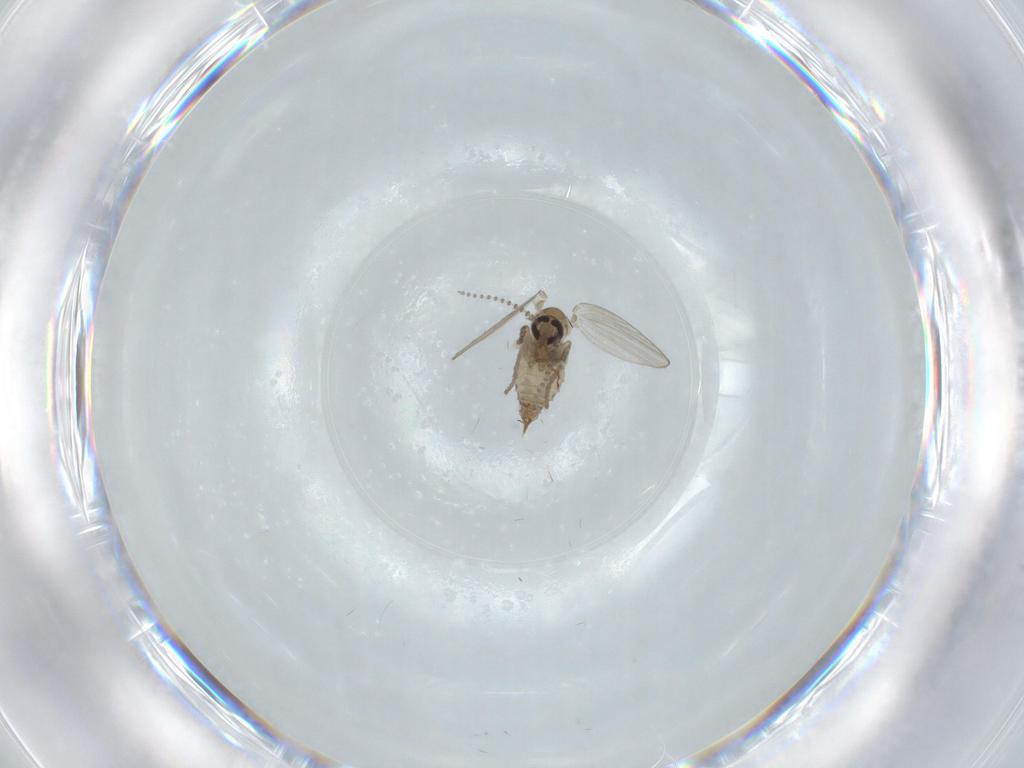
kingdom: Animalia
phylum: Arthropoda
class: Insecta
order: Diptera
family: Psychodidae
